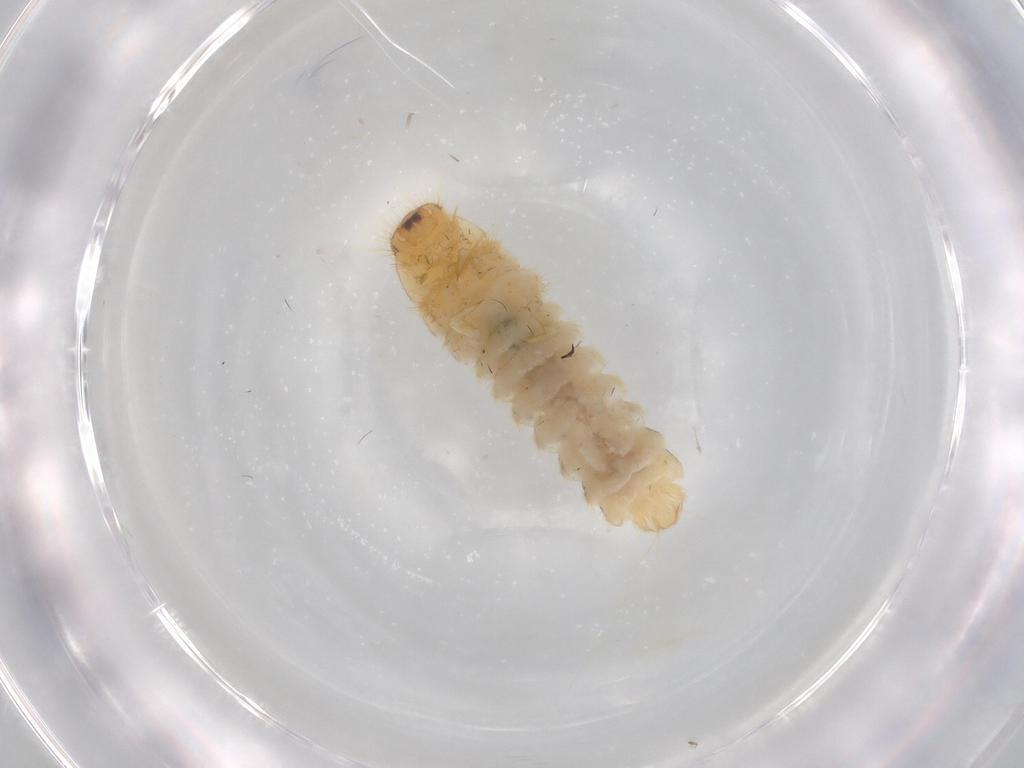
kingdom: Animalia
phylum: Arthropoda
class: Insecta
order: Coleoptera
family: Dermestidae
